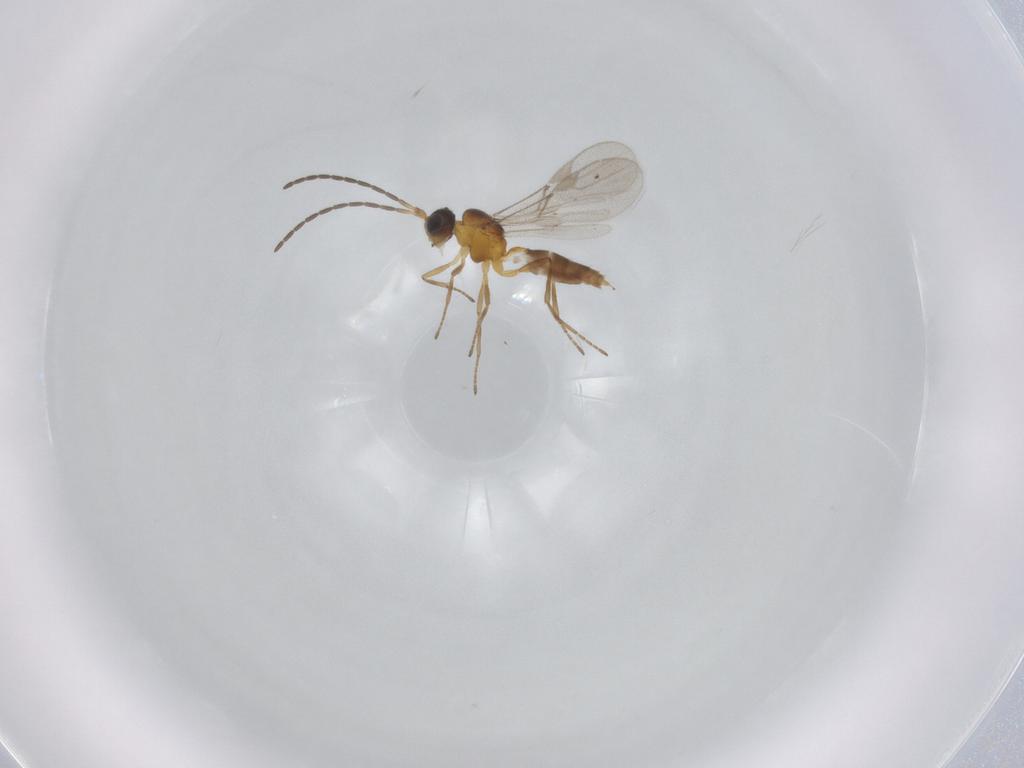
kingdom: Animalia
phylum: Arthropoda
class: Insecta
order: Hymenoptera
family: Braconidae
